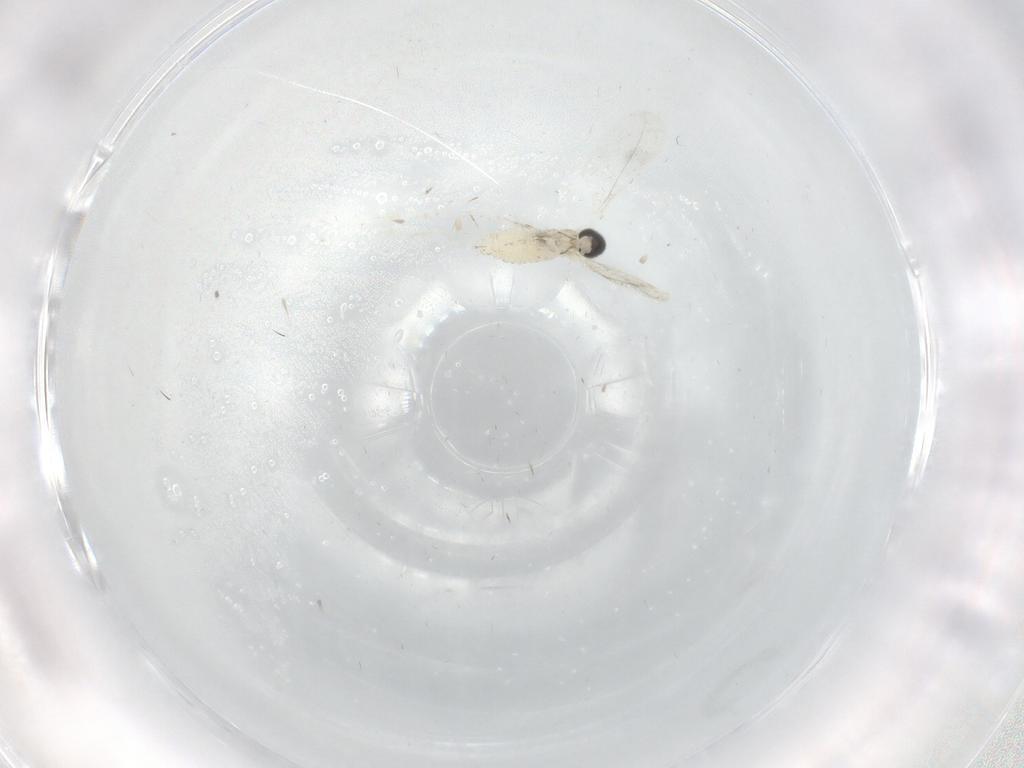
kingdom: Animalia
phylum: Arthropoda
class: Insecta
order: Diptera
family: Cecidomyiidae
